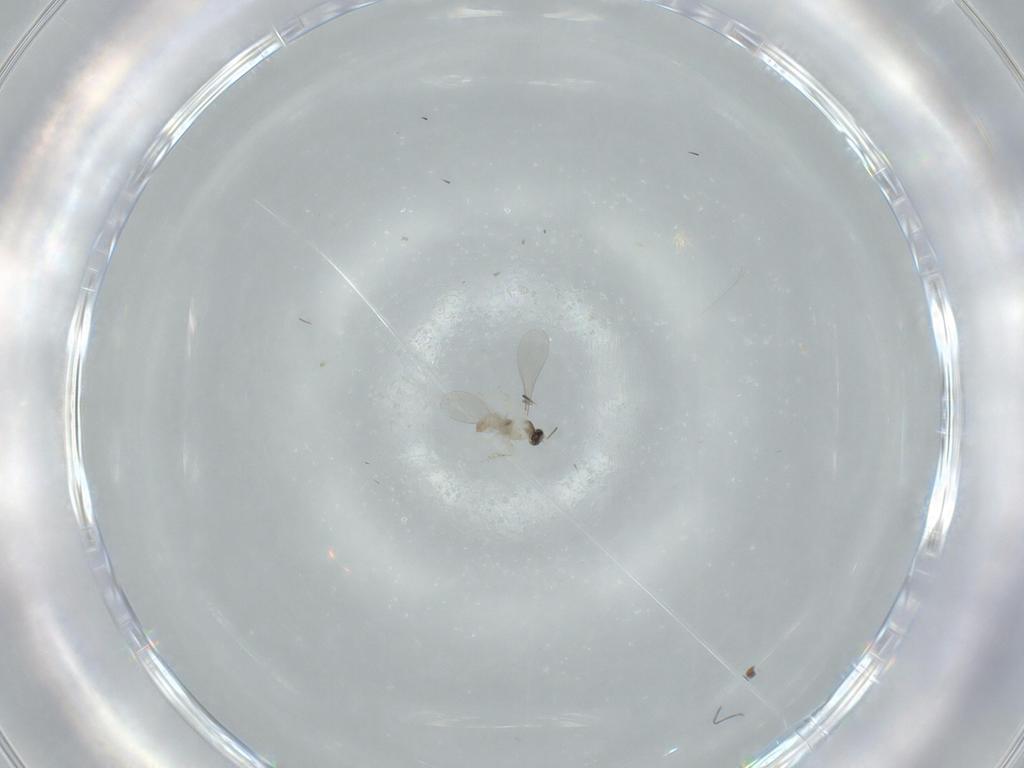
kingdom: Animalia
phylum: Arthropoda
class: Insecta
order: Diptera
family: Phoridae
